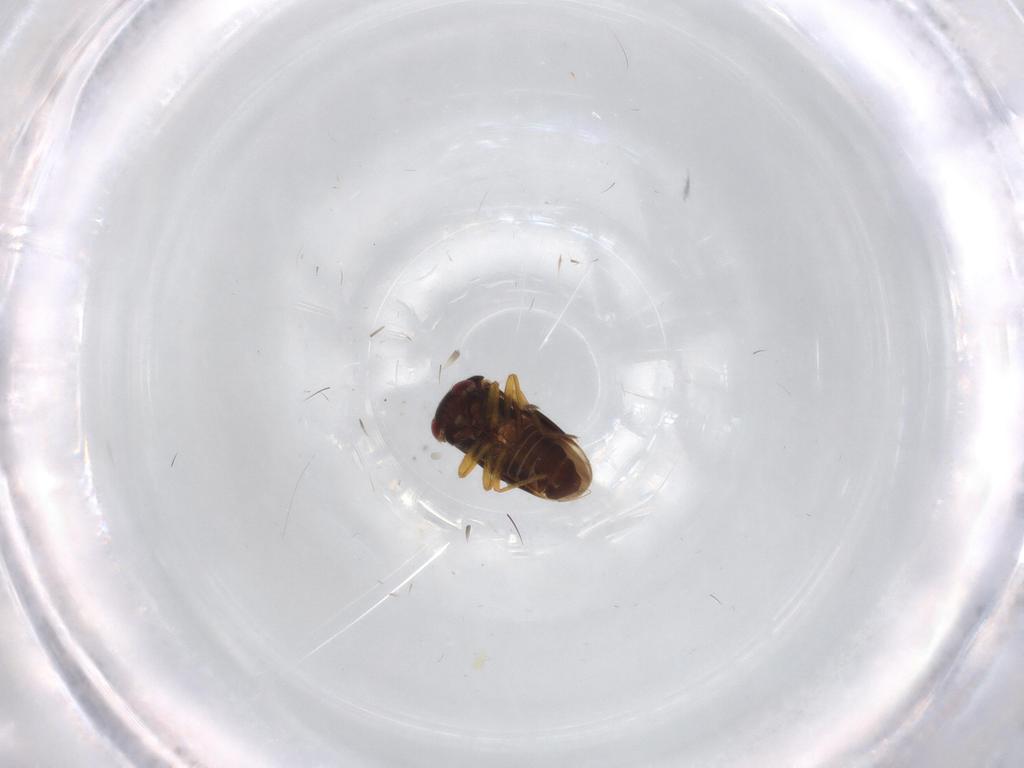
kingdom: Animalia
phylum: Arthropoda
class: Insecta
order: Hemiptera
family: Schizopteridae
